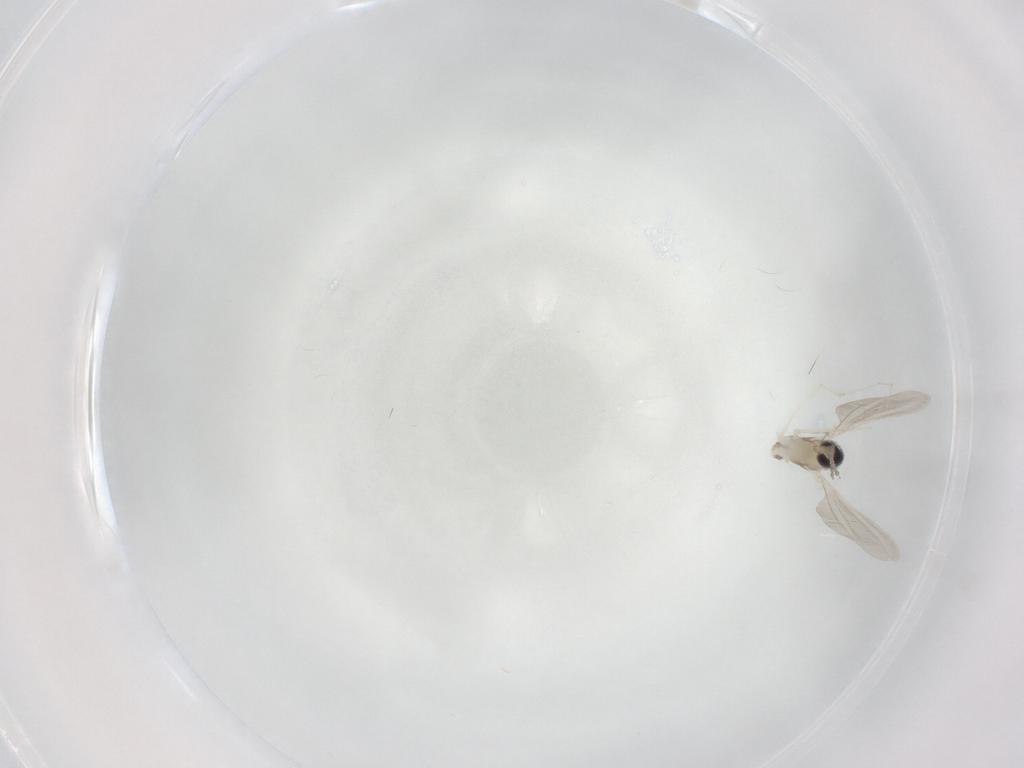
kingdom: Animalia
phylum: Arthropoda
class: Insecta
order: Diptera
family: Cecidomyiidae
